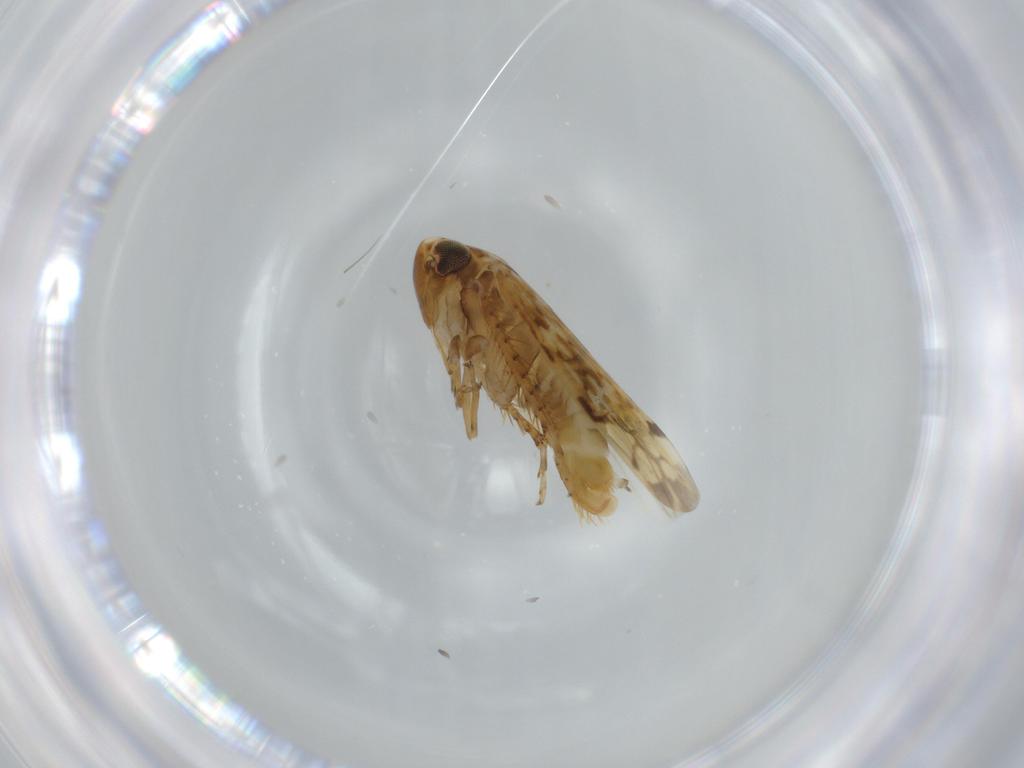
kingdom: Animalia
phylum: Arthropoda
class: Insecta
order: Hemiptera
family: Cicadellidae
